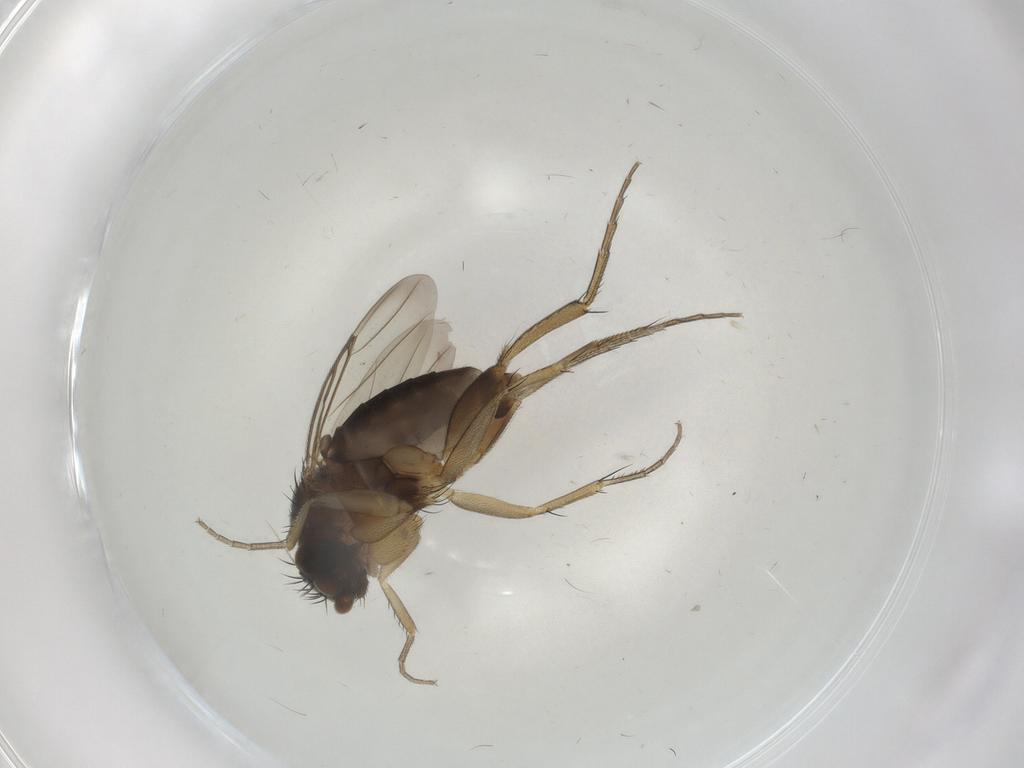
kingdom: Animalia
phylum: Arthropoda
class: Insecta
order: Diptera
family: Phoridae
